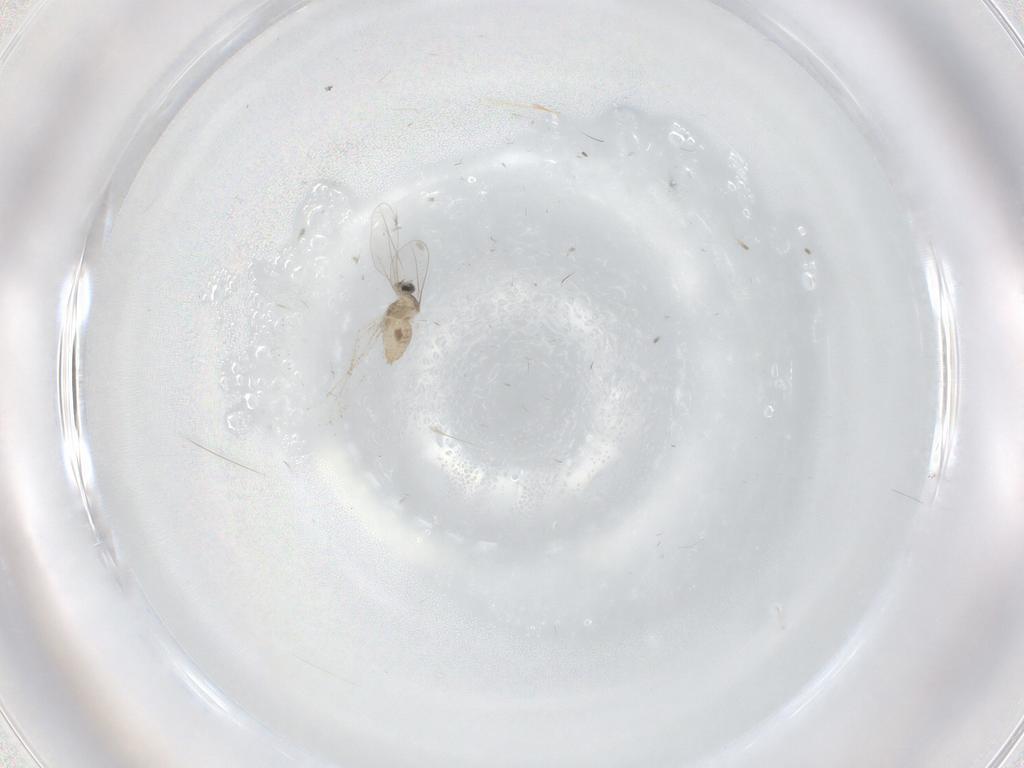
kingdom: Animalia
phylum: Arthropoda
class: Insecta
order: Diptera
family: Cecidomyiidae
